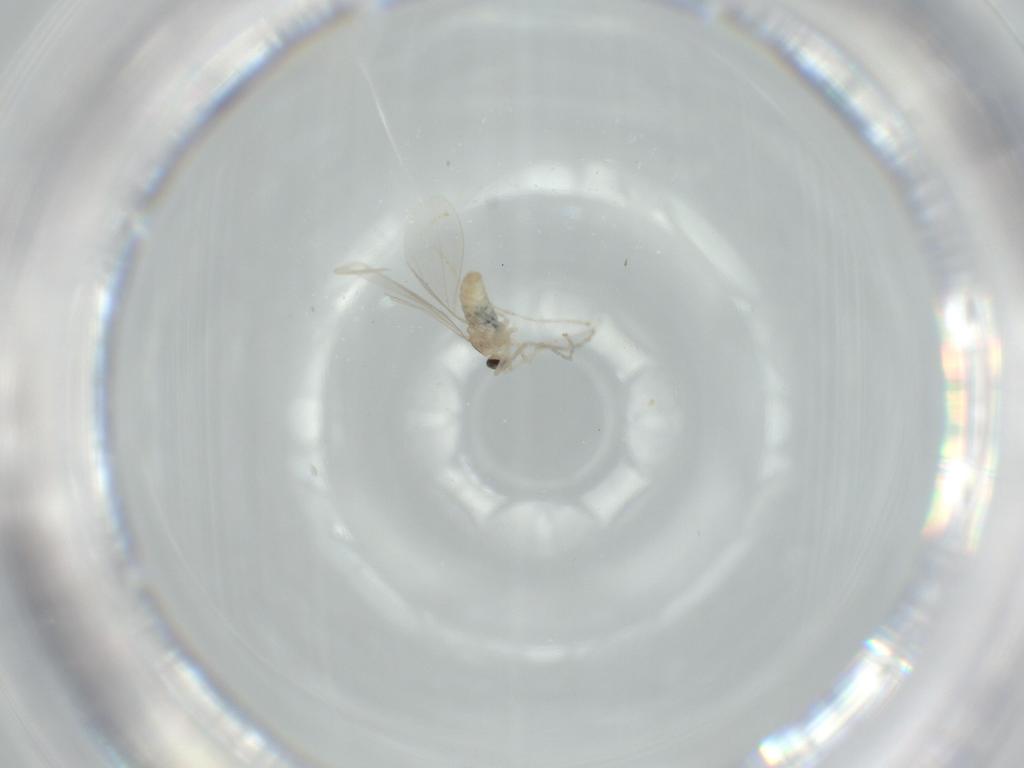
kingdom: Animalia
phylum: Arthropoda
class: Insecta
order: Diptera
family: Cecidomyiidae
